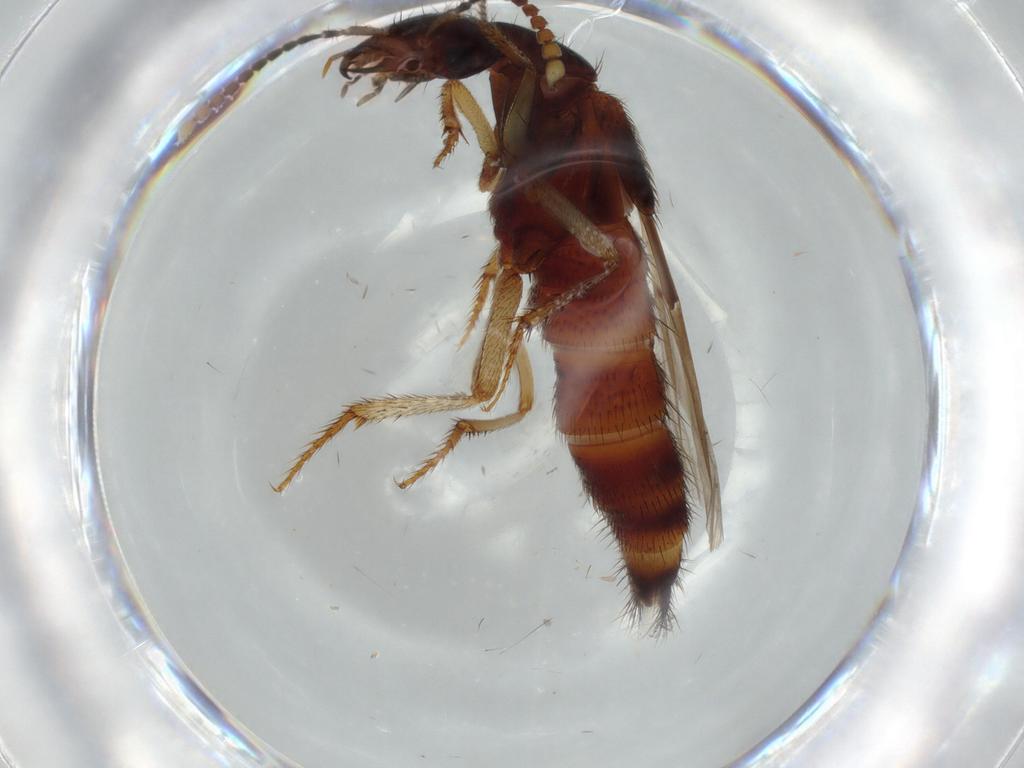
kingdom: Animalia
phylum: Arthropoda
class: Insecta
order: Coleoptera
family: Staphylinidae
